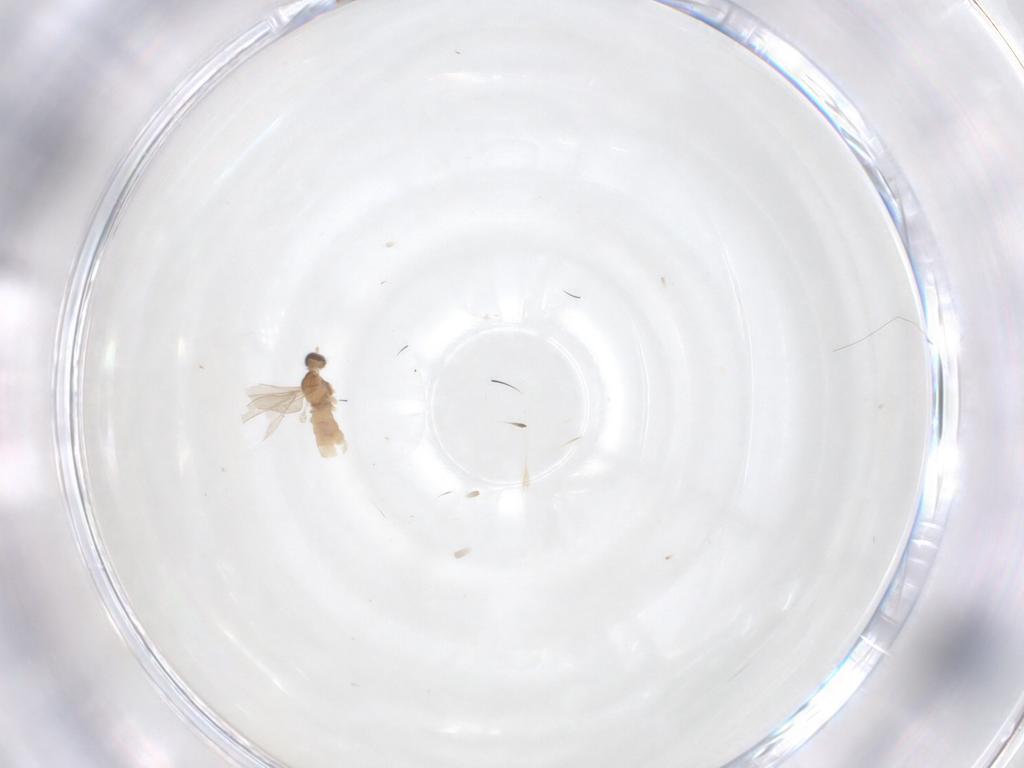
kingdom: Animalia
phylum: Arthropoda
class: Insecta
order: Diptera
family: Cecidomyiidae
